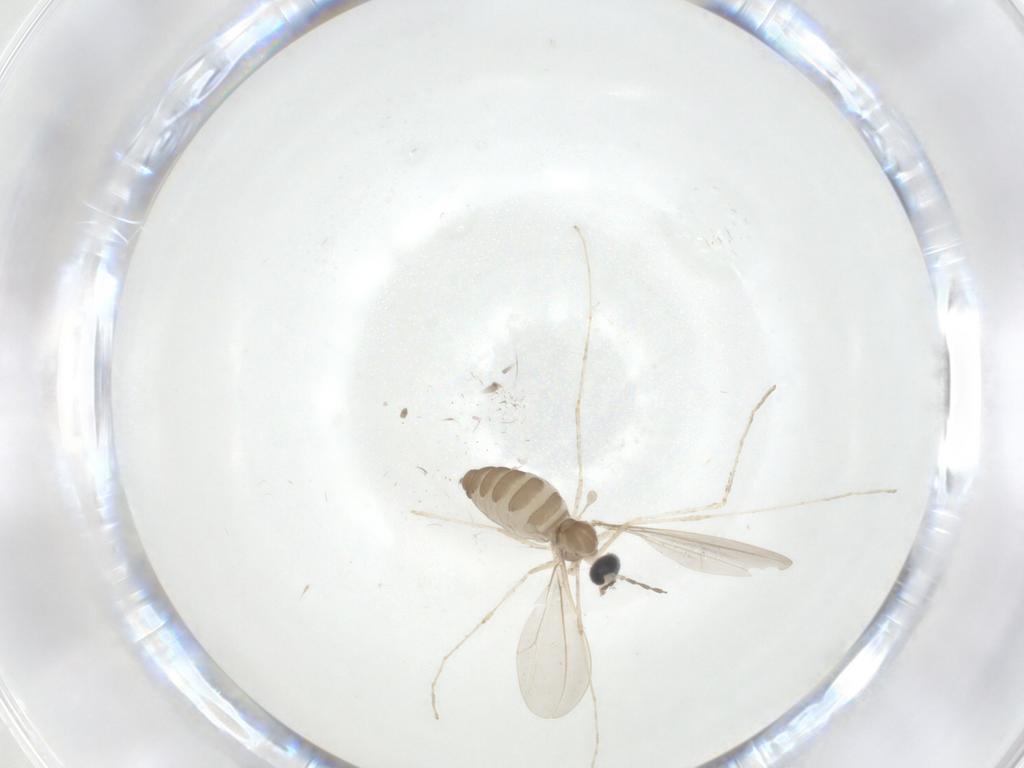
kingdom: Animalia
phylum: Arthropoda
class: Insecta
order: Diptera
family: Cecidomyiidae
